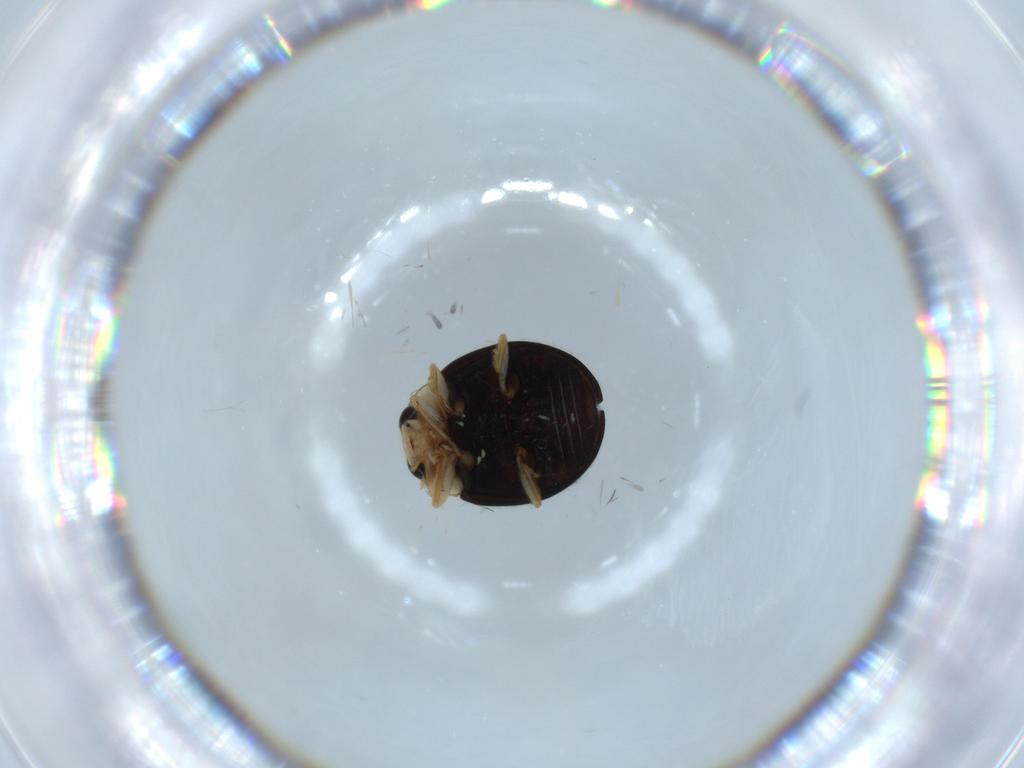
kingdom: Animalia
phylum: Arthropoda
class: Insecta
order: Coleoptera
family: Coccinellidae
